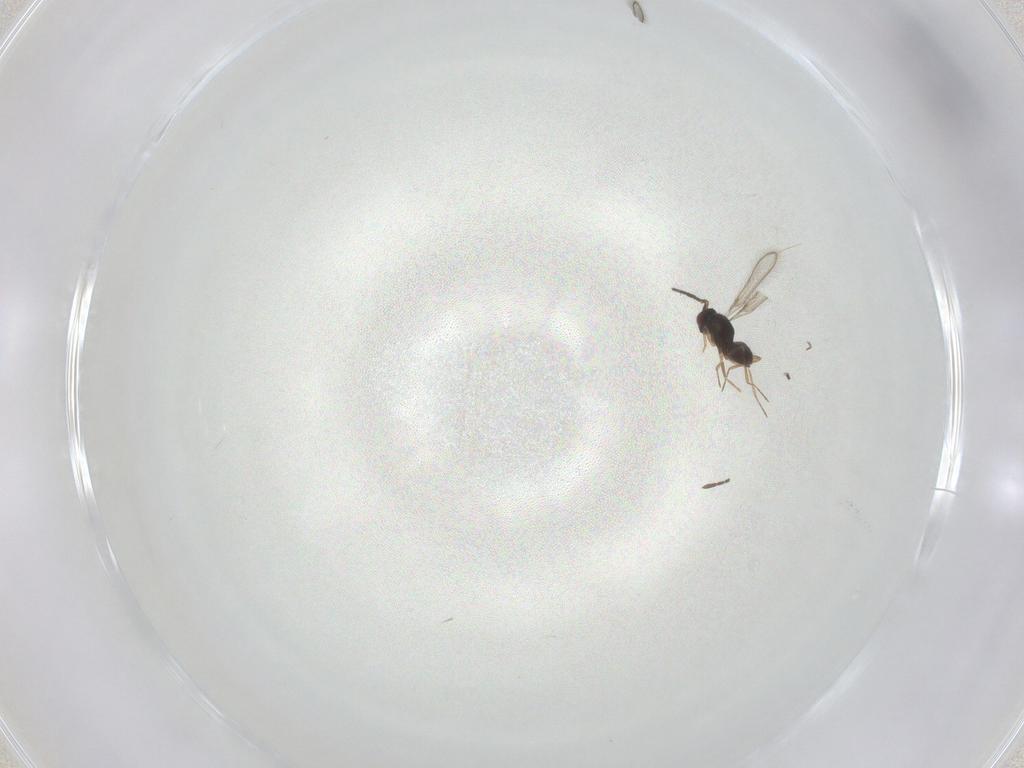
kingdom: Animalia
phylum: Arthropoda
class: Insecta
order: Hymenoptera
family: Mymaridae
